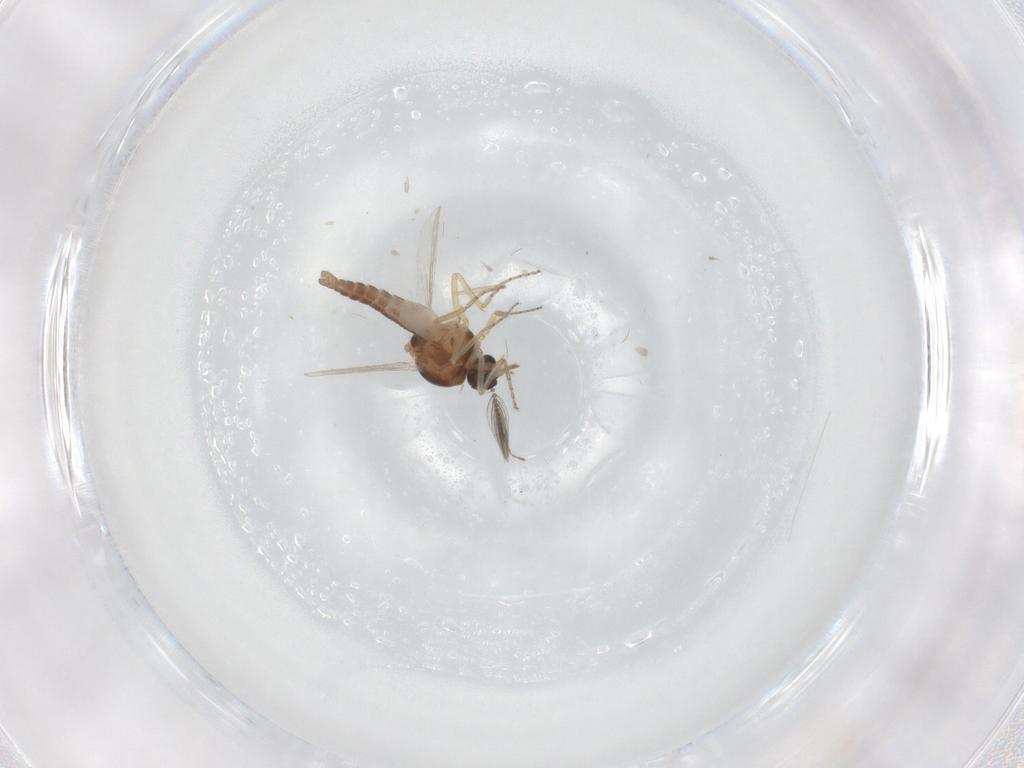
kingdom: Animalia
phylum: Arthropoda
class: Insecta
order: Diptera
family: Ceratopogonidae
